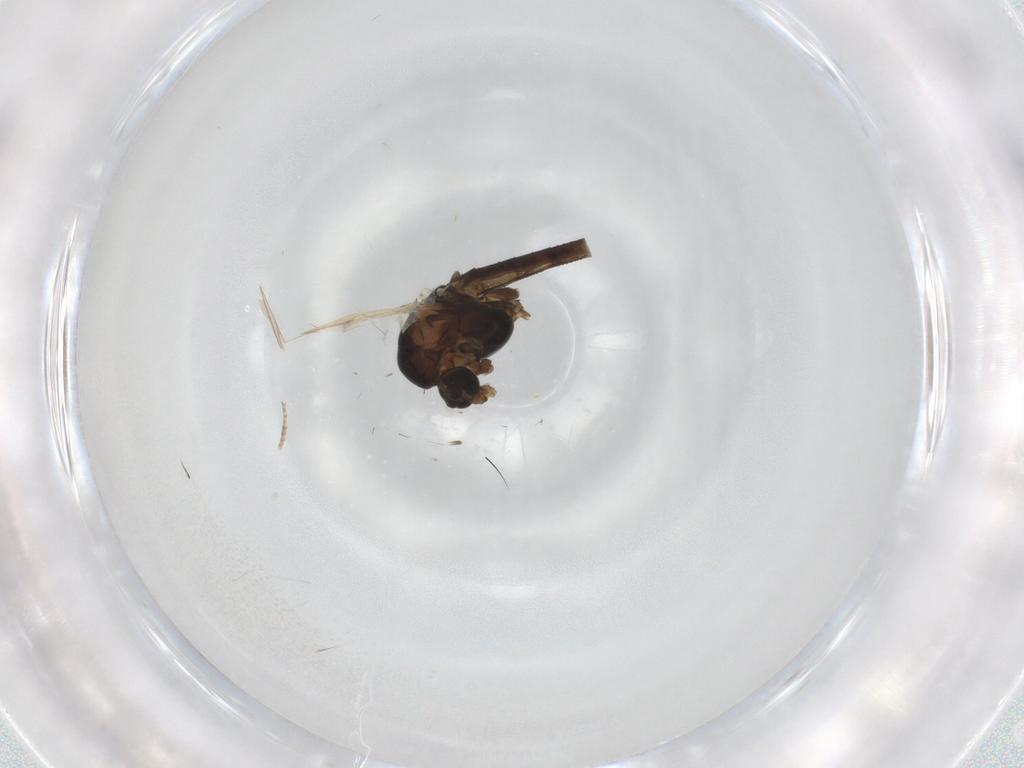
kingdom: Animalia
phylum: Arthropoda
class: Insecta
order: Diptera
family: Chironomidae
